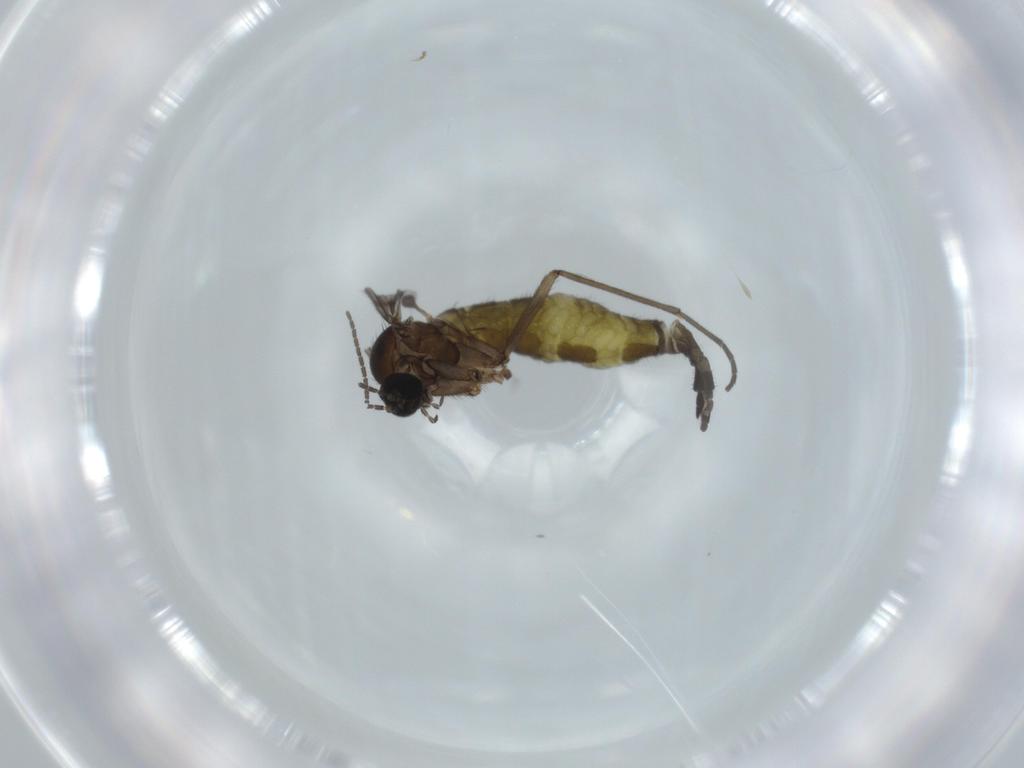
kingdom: Animalia
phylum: Arthropoda
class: Insecta
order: Diptera
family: Sciaridae
